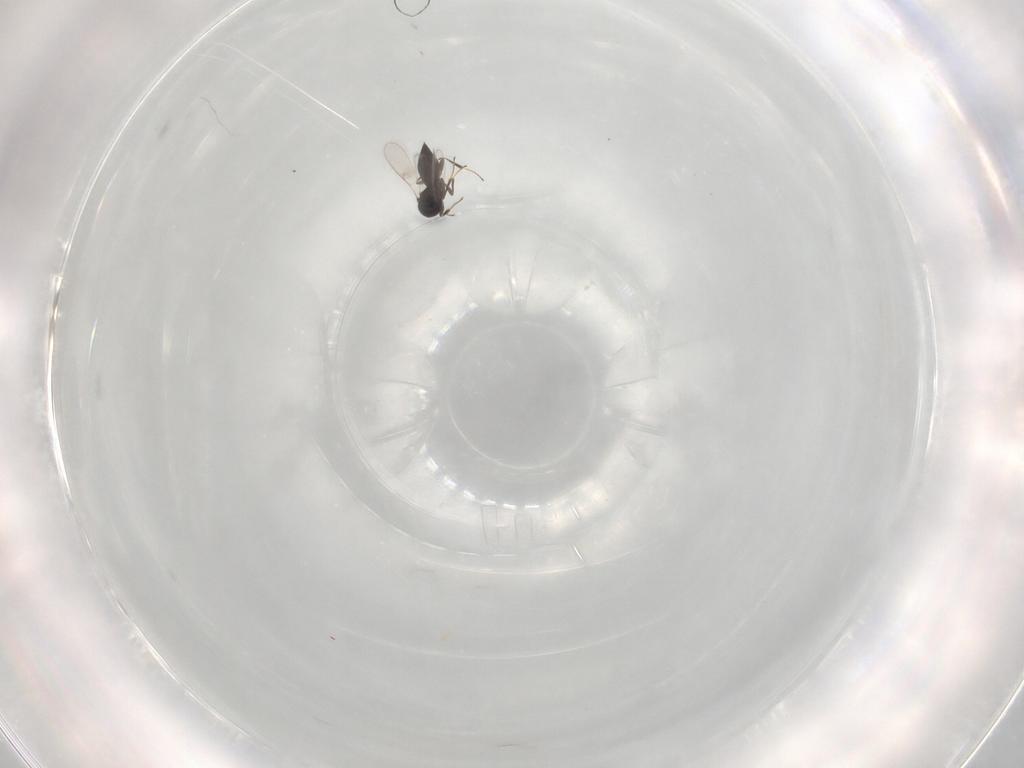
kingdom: Animalia
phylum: Arthropoda
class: Insecta
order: Hymenoptera
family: Scelionidae
